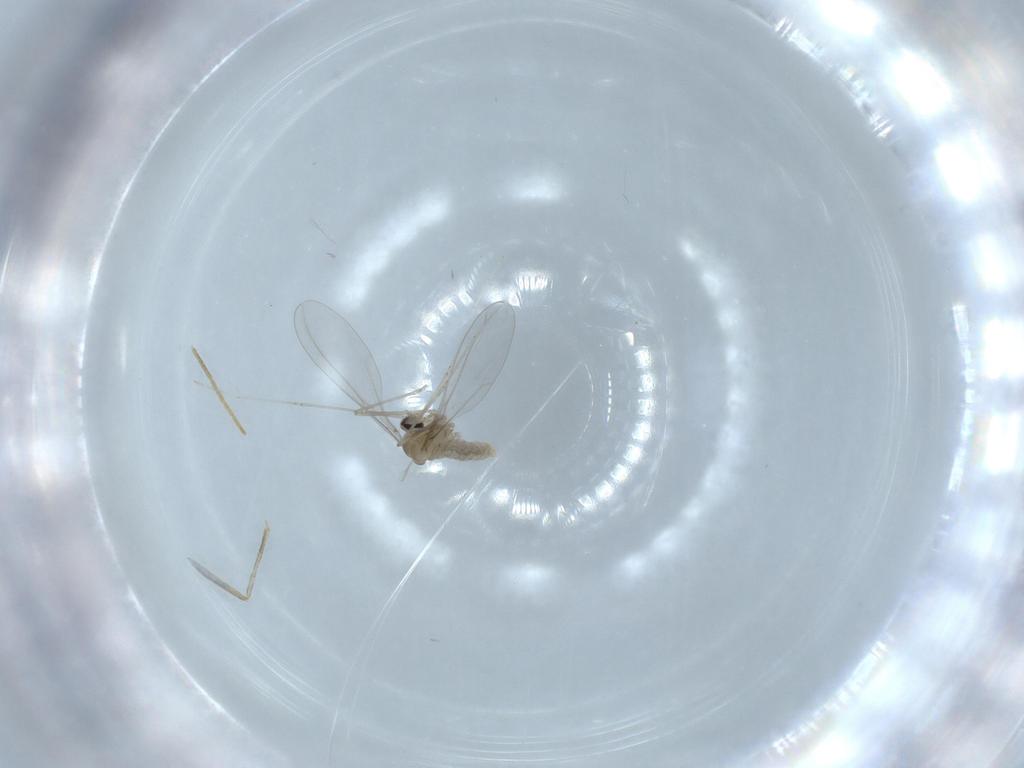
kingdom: Animalia
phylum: Arthropoda
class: Insecta
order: Diptera
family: Cecidomyiidae
